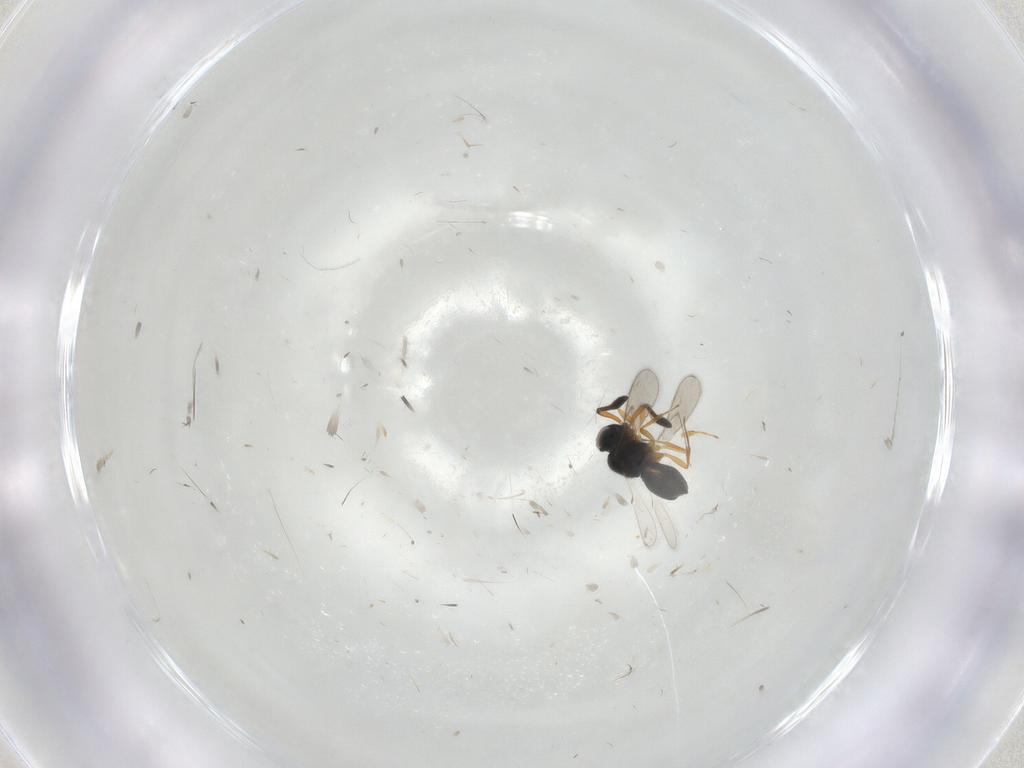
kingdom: Animalia
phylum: Arthropoda
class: Insecta
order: Hymenoptera
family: Scelionidae
